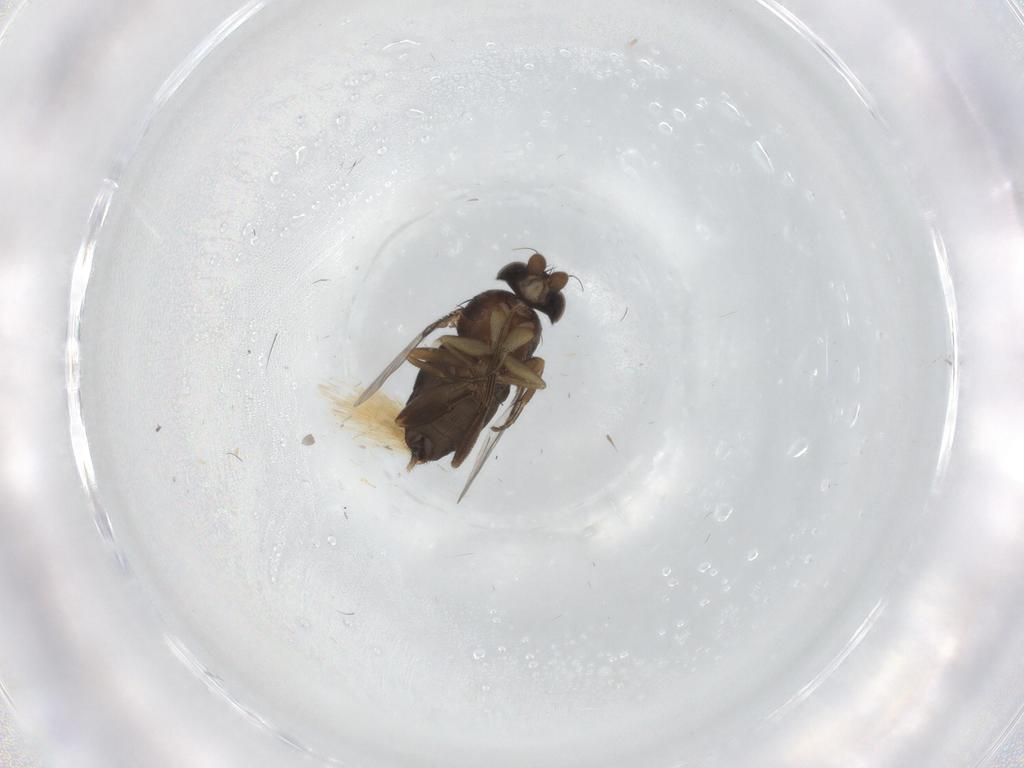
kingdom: Animalia
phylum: Arthropoda
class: Insecta
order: Diptera
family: Phoridae
